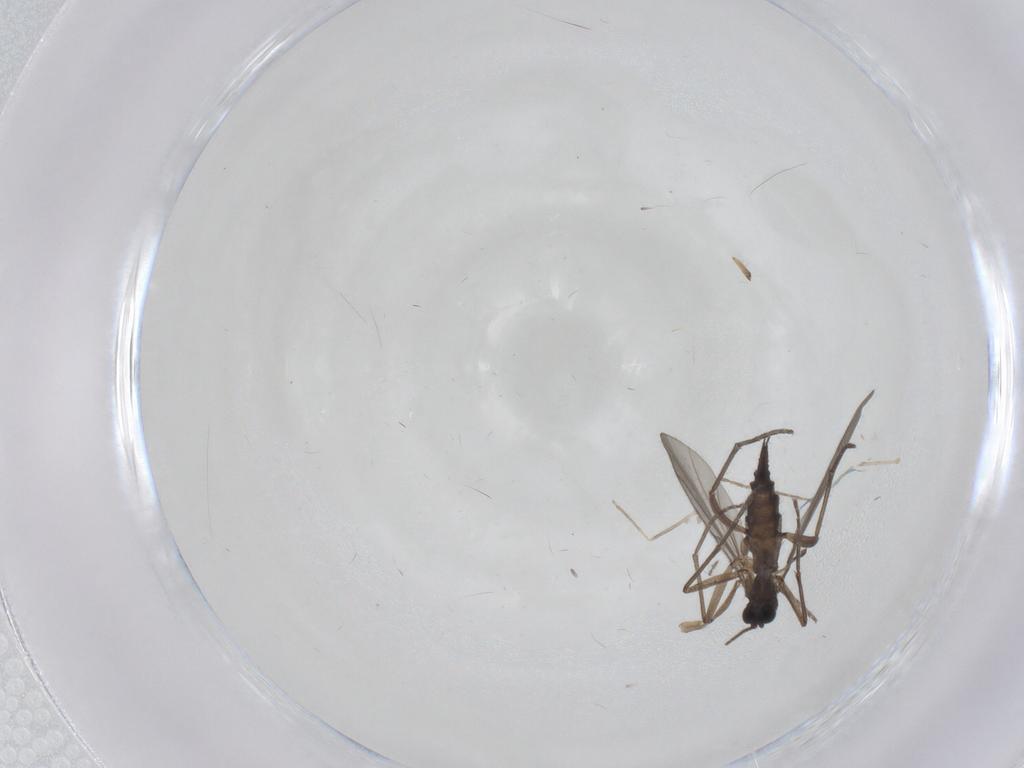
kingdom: Animalia
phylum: Arthropoda
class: Insecta
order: Diptera
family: Sciaridae
